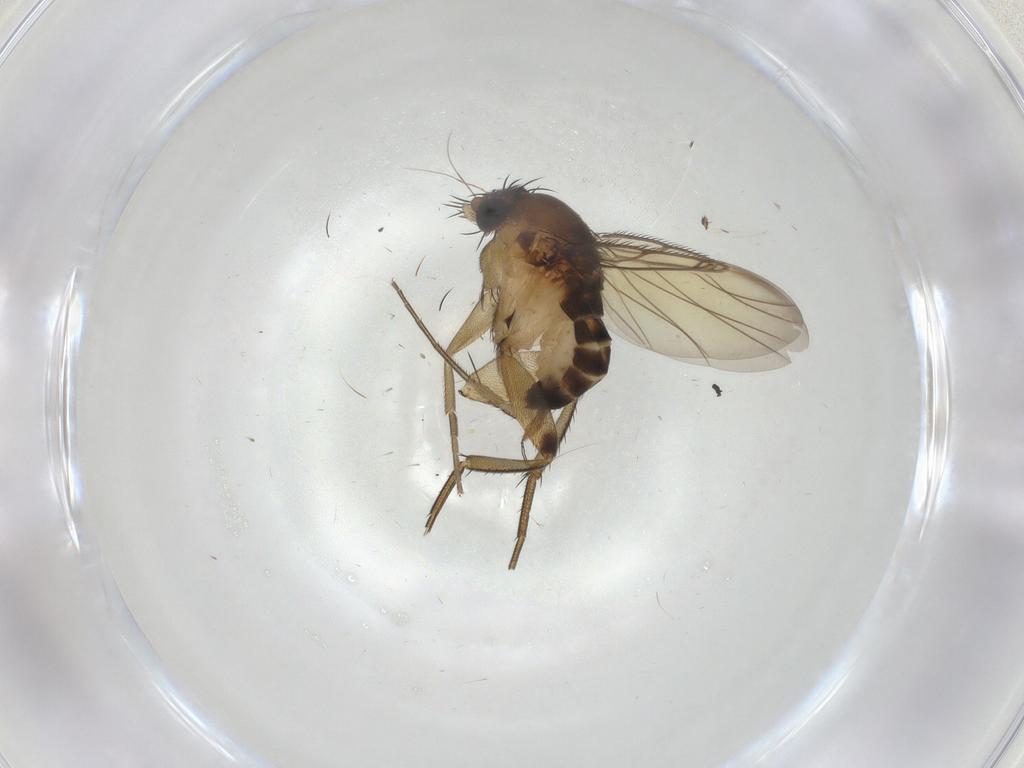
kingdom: Animalia
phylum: Arthropoda
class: Insecta
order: Diptera
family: Phoridae
